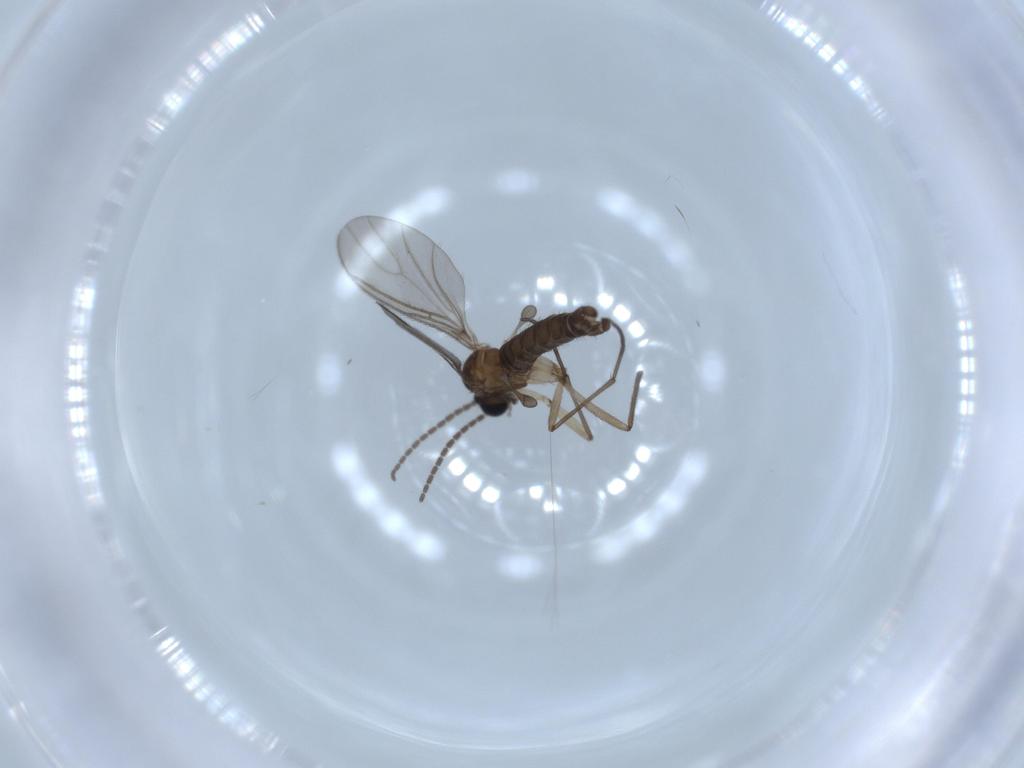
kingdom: Animalia
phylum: Arthropoda
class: Insecta
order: Diptera
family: Sciaridae
